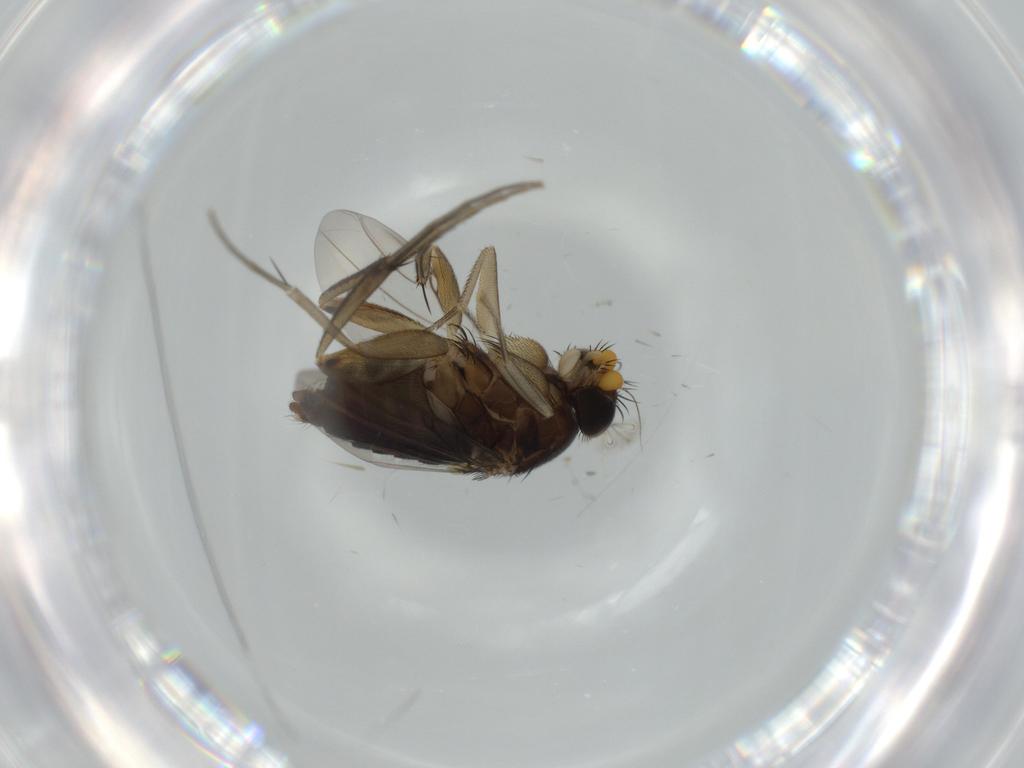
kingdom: Animalia
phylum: Arthropoda
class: Insecta
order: Diptera
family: Phoridae
